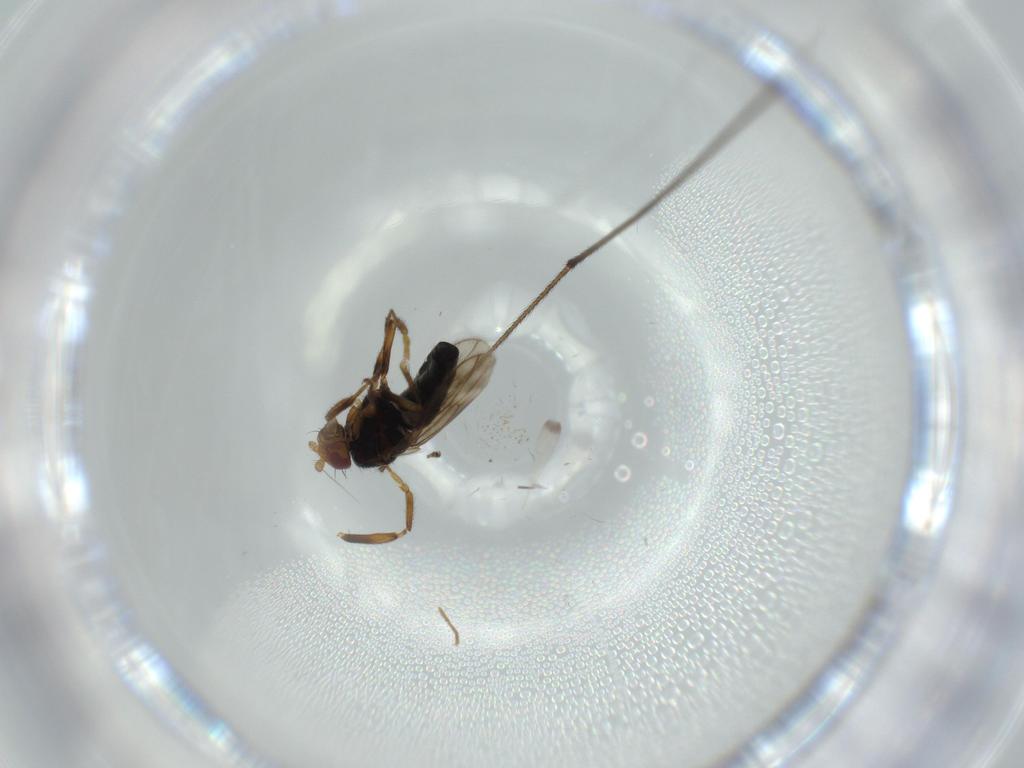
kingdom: Animalia
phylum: Arthropoda
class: Insecta
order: Diptera
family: Sphaeroceridae
